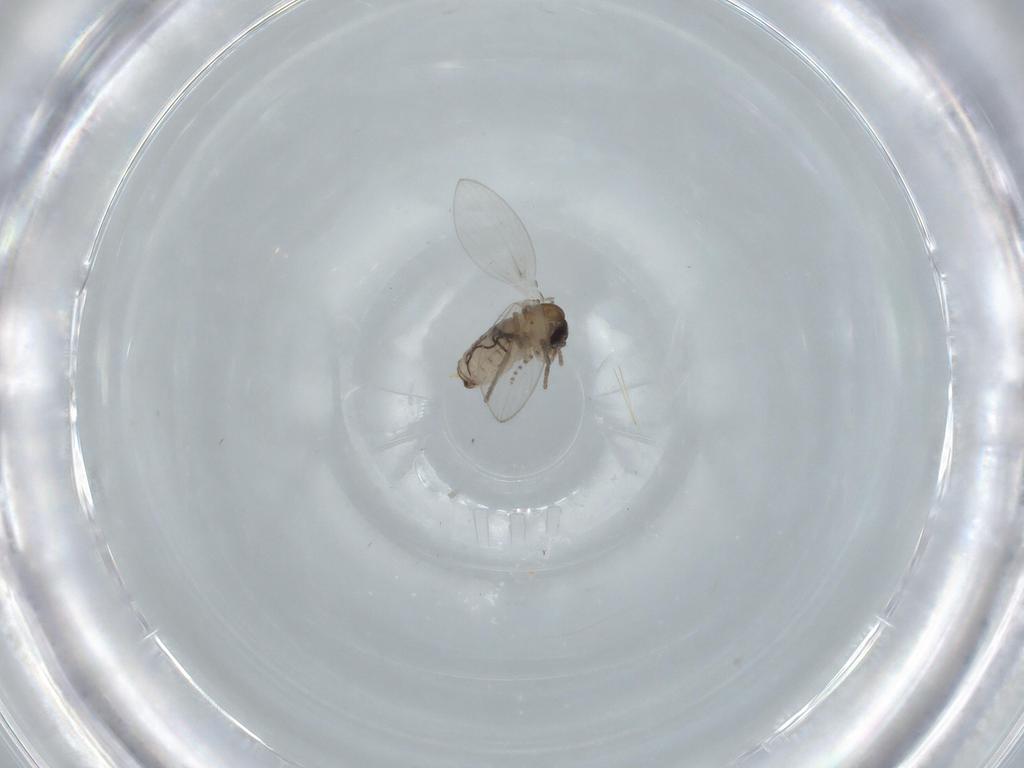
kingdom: Animalia
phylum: Arthropoda
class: Insecta
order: Diptera
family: Psychodidae
